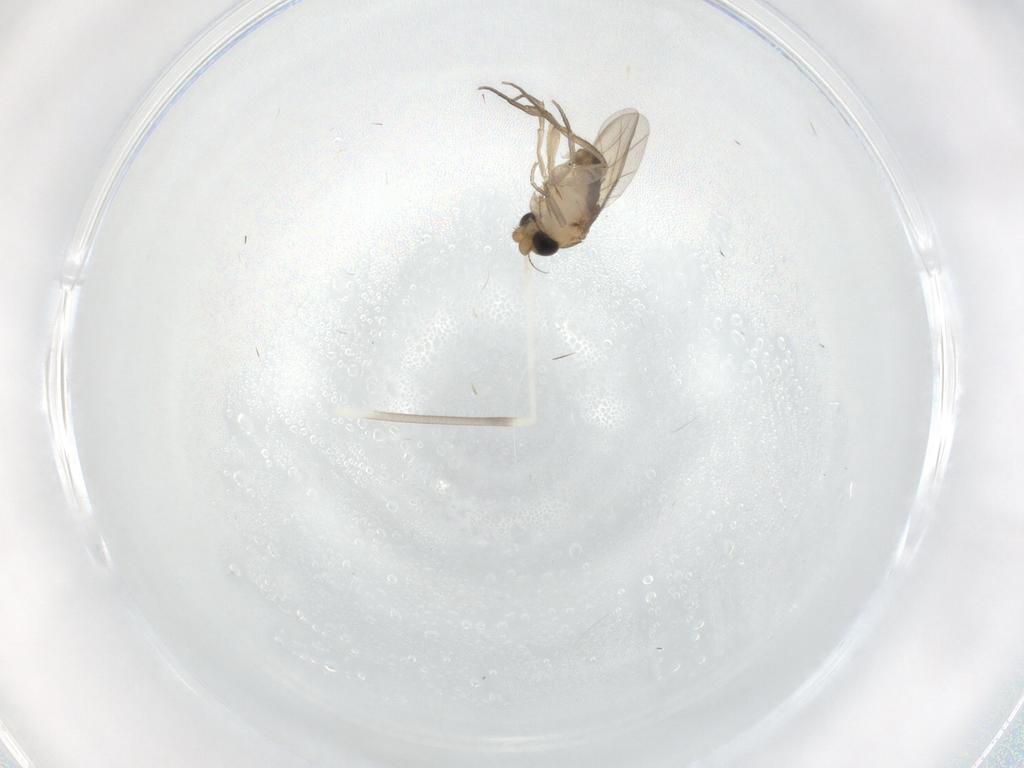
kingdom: Animalia
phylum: Arthropoda
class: Insecta
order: Diptera
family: Phoridae
